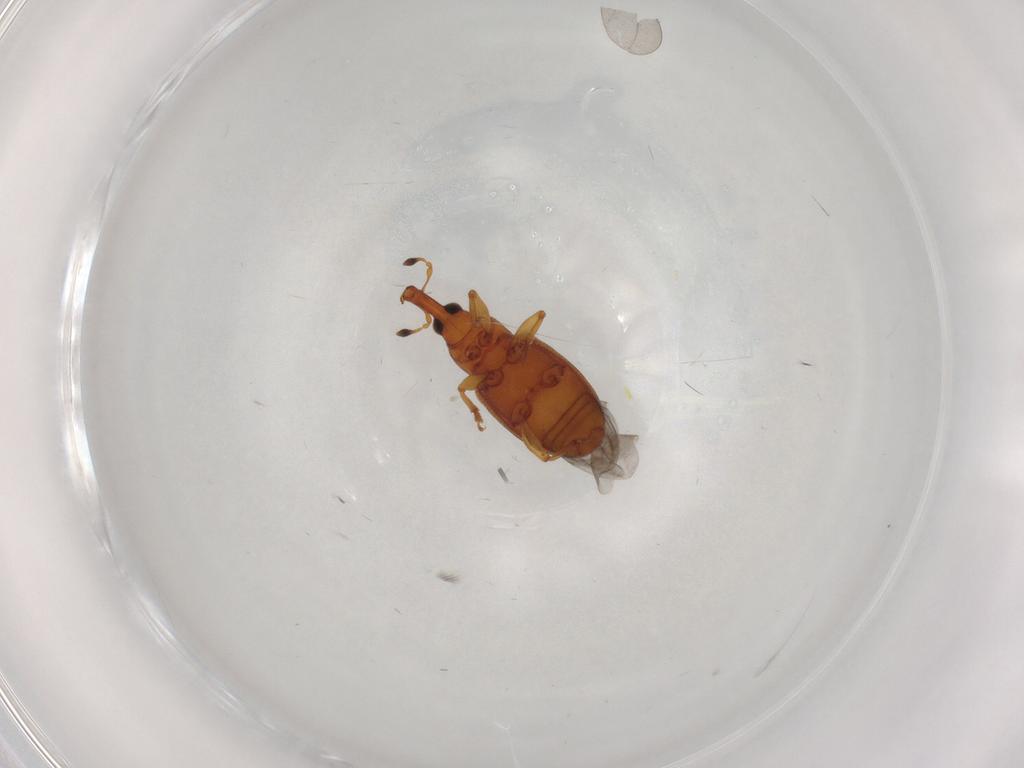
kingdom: Animalia
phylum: Arthropoda
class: Insecta
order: Coleoptera
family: Curculionidae
